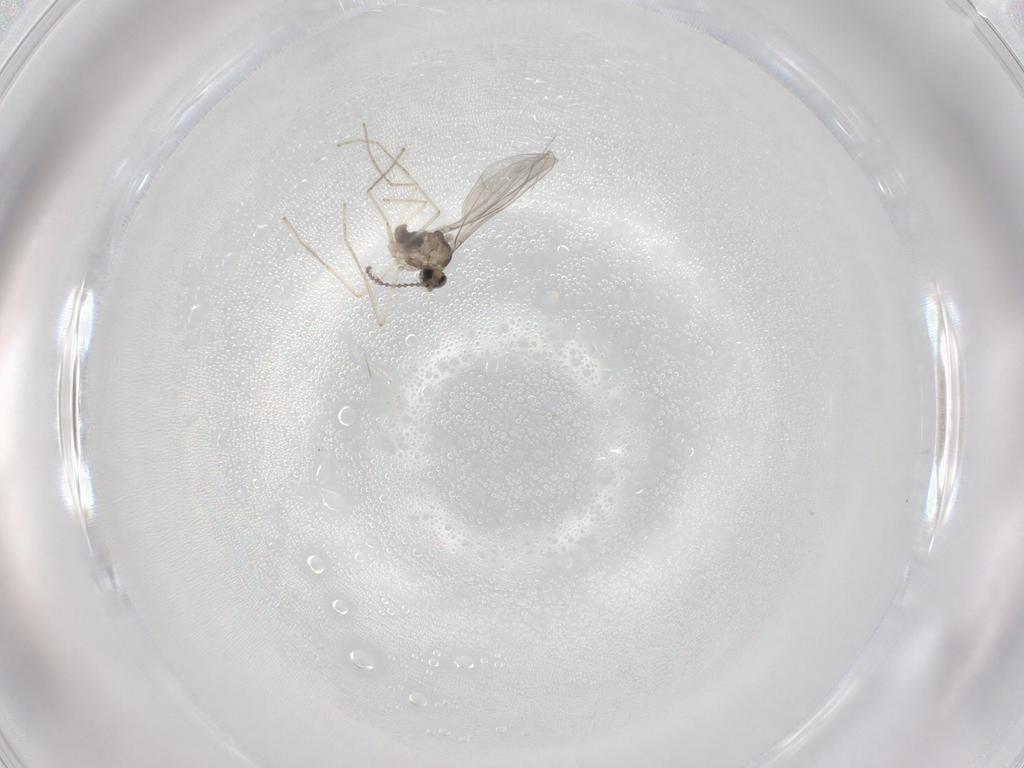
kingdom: Animalia
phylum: Arthropoda
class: Insecta
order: Diptera
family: Cecidomyiidae
